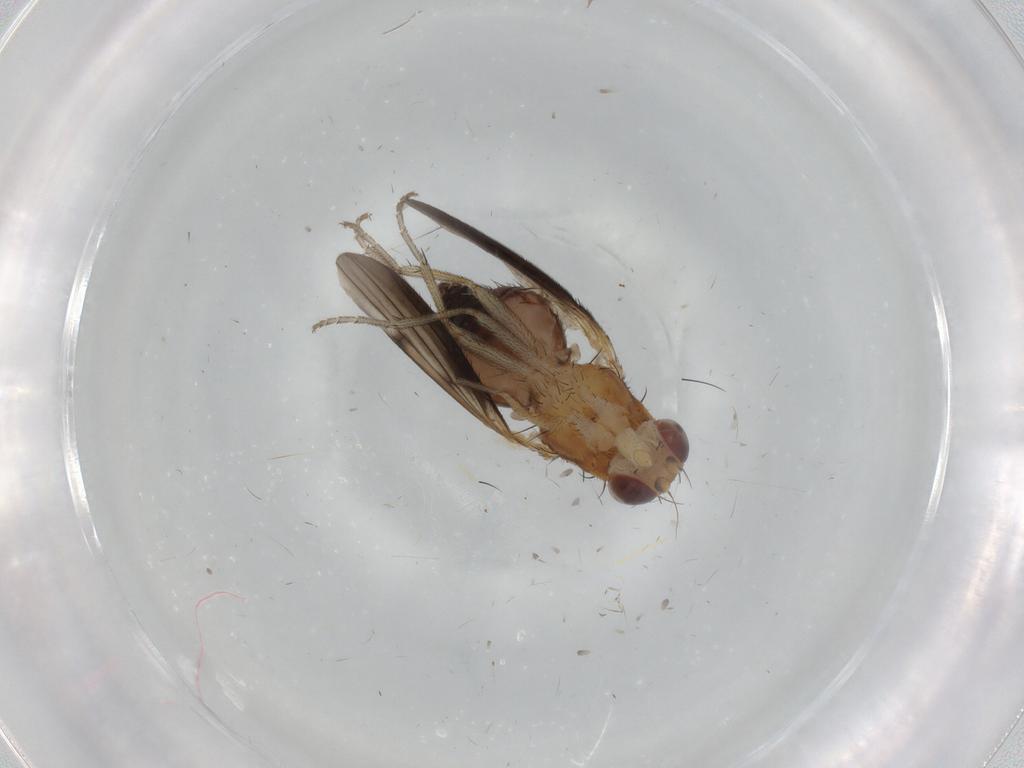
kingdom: Animalia
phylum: Arthropoda
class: Insecta
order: Diptera
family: Heleomyzidae
